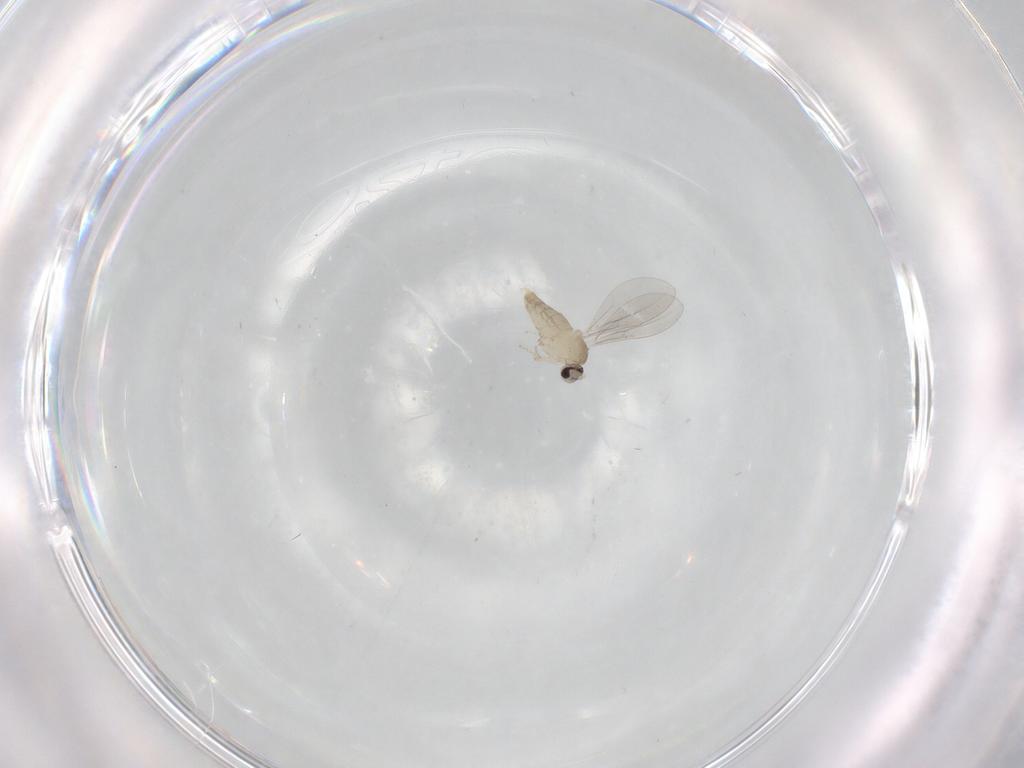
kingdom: Animalia
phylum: Arthropoda
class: Insecta
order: Diptera
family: Cecidomyiidae
